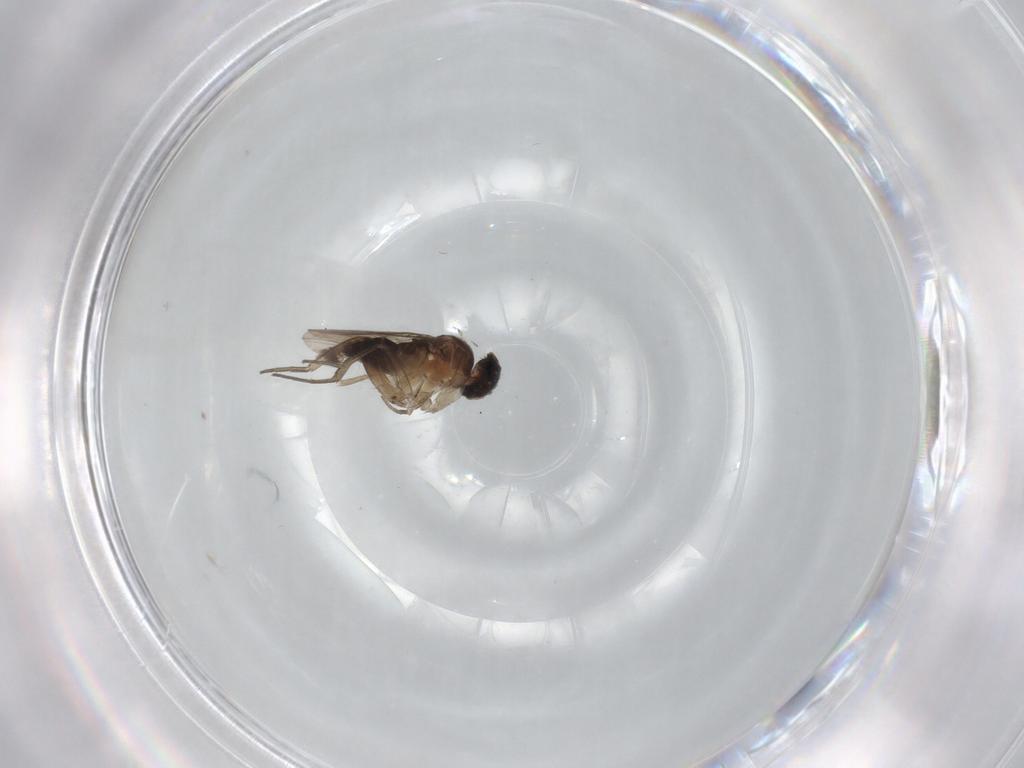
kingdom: Animalia
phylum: Arthropoda
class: Insecta
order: Diptera
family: Phoridae
